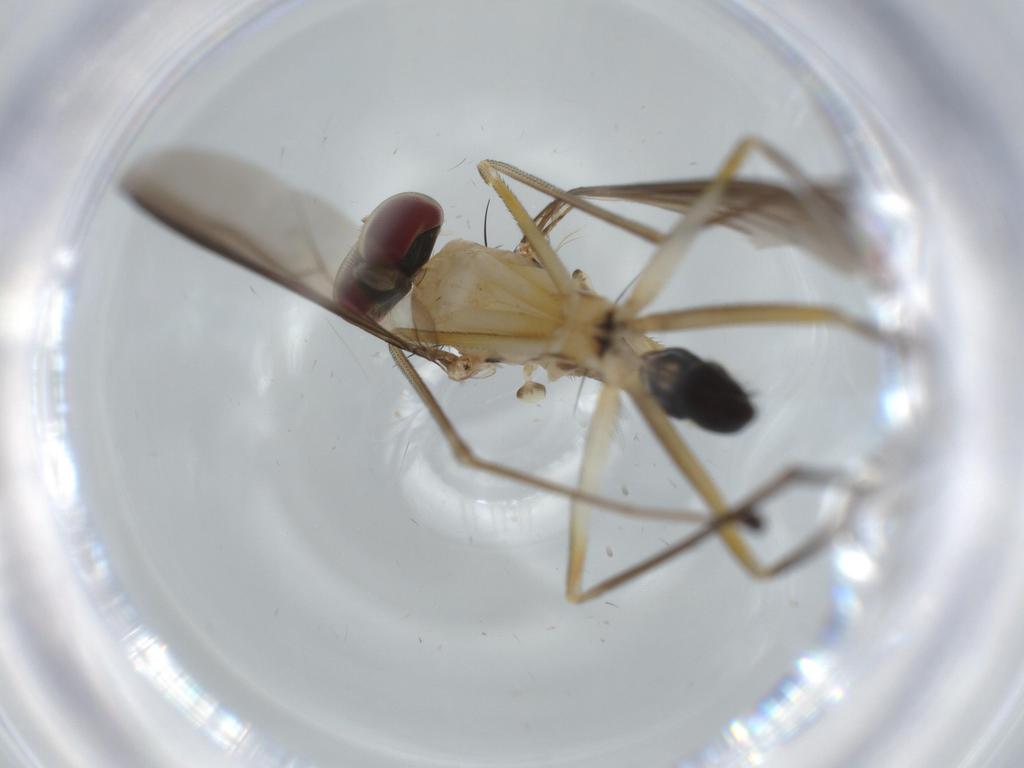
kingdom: Animalia
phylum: Arthropoda
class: Insecta
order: Diptera
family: Dolichopodidae
